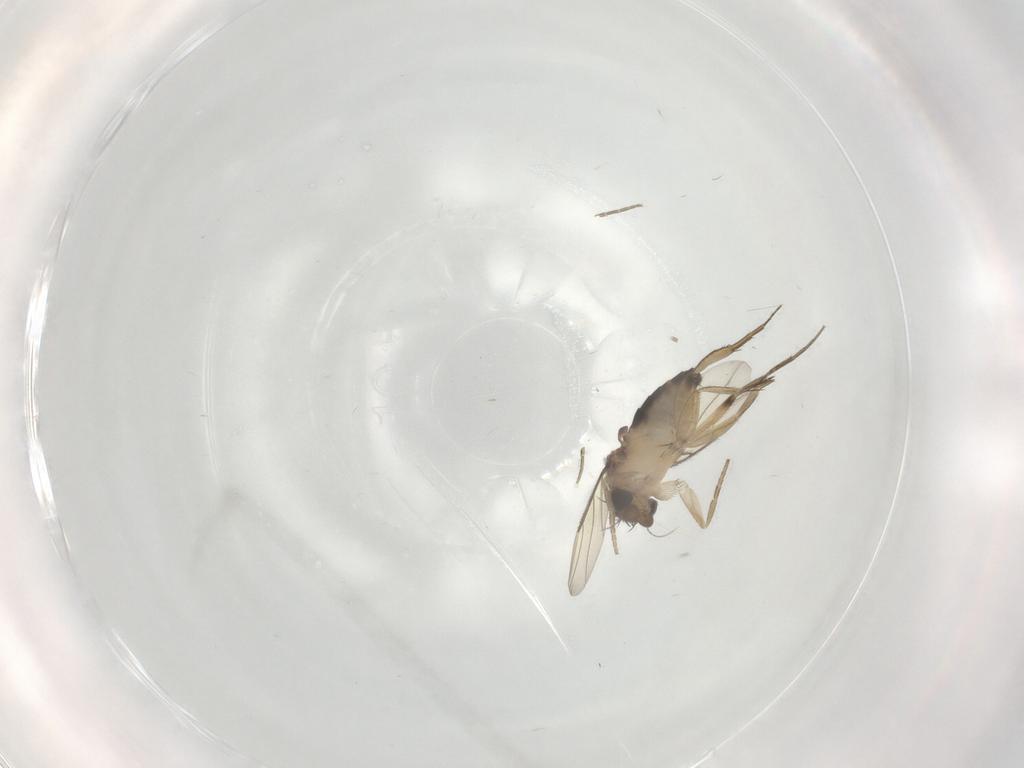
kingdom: Animalia
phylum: Arthropoda
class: Insecta
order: Diptera
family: Phoridae
